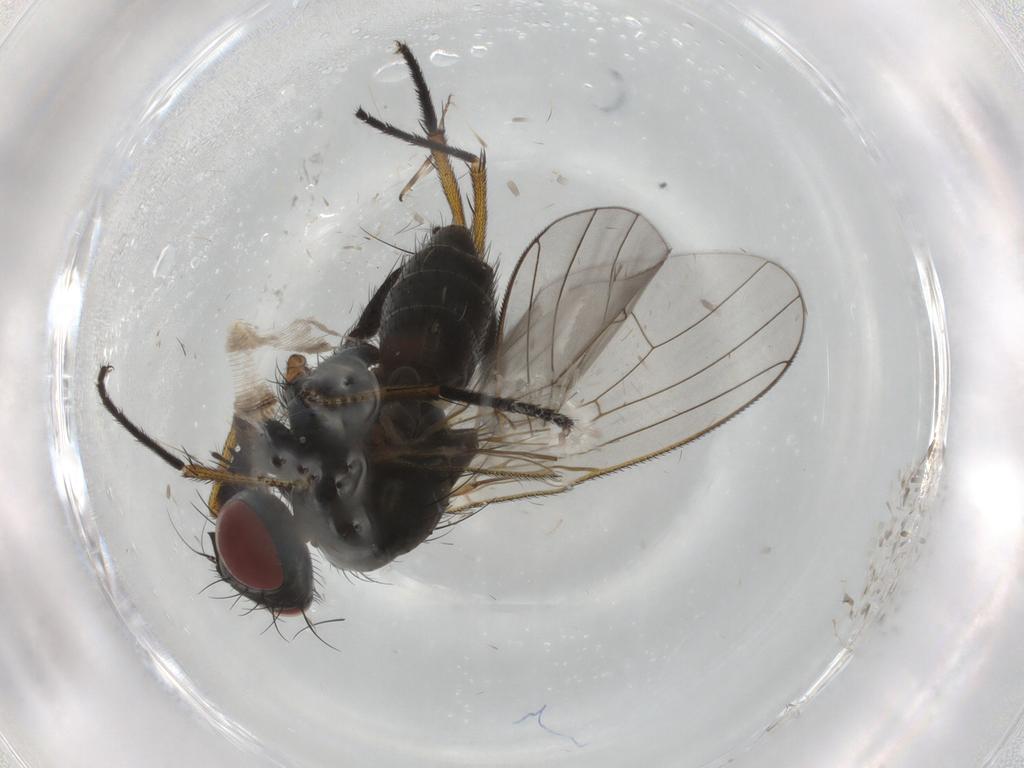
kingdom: Animalia
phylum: Arthropoda
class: Insecta
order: Diptera
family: Muscidae
